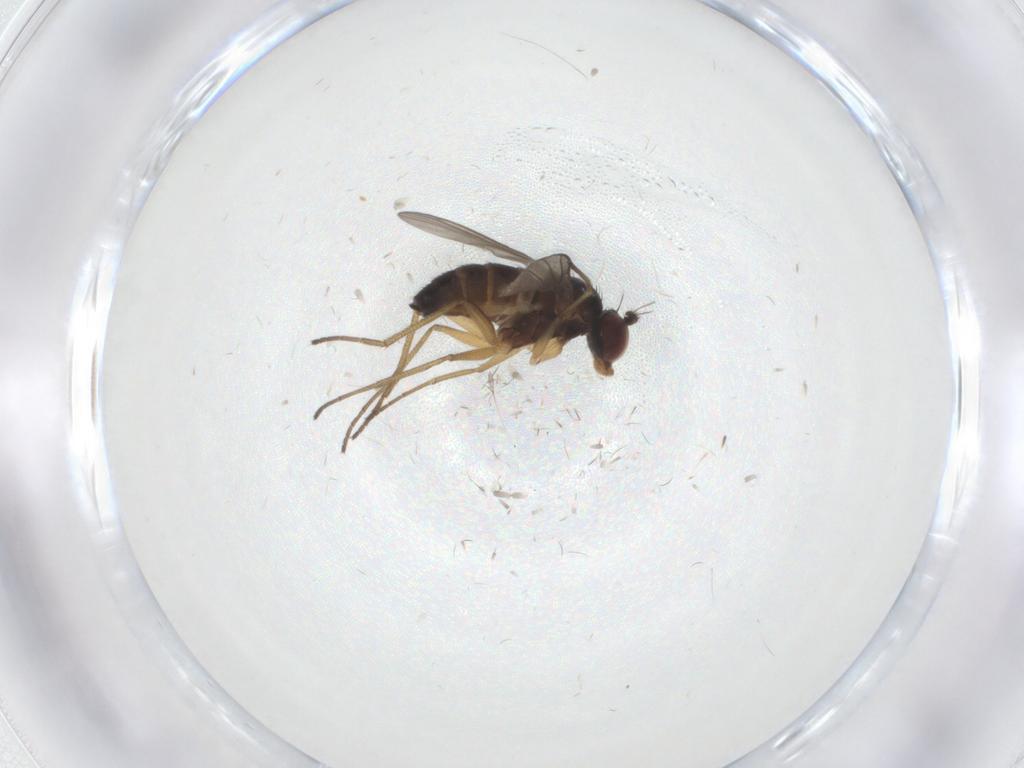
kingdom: Animalia
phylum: Arthropoda
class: Insecta
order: Diptera
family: Dolichopodidae
